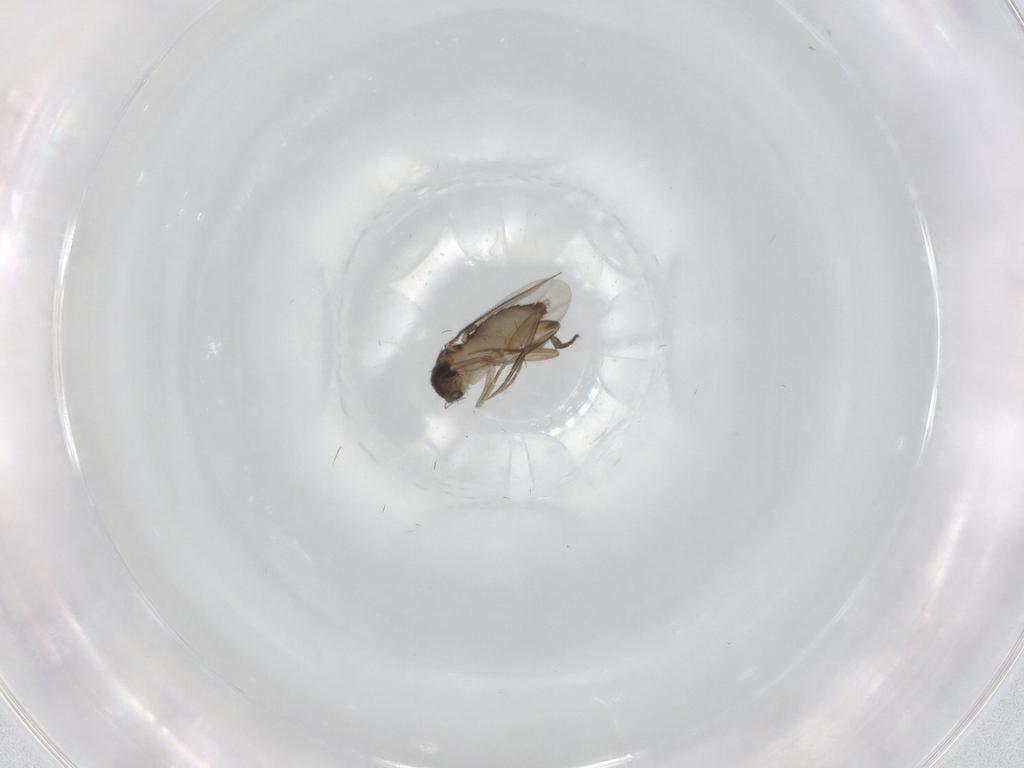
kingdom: Animalia
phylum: Arthropoda
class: Insecta
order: Diptera
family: Phoridae
